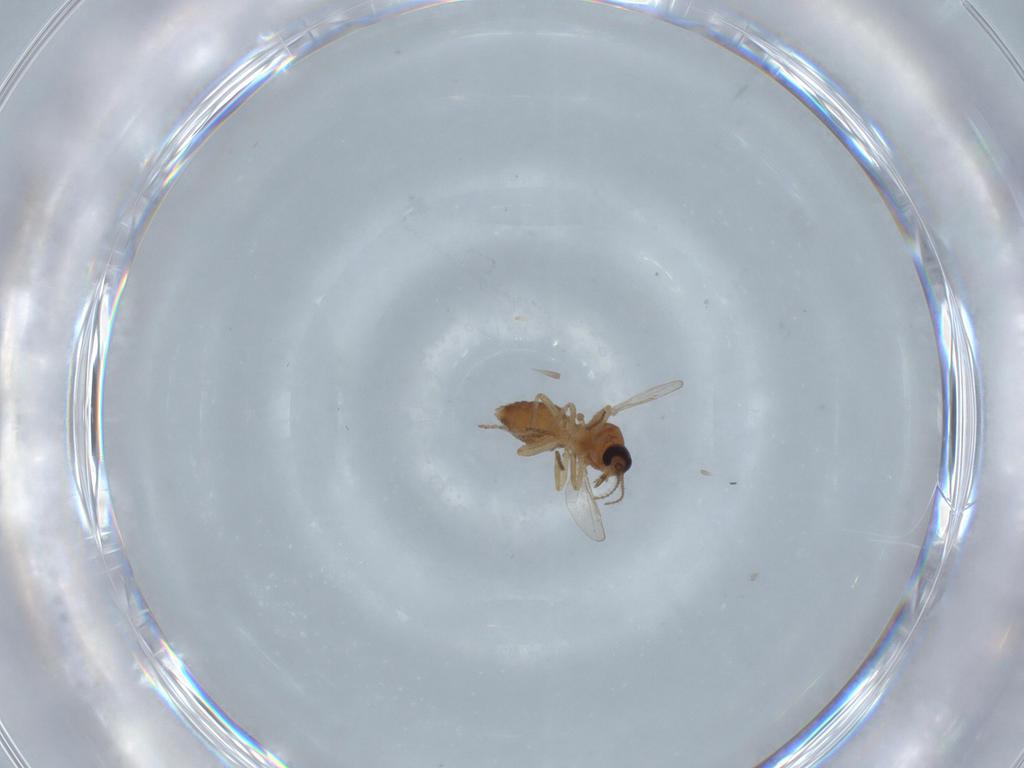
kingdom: Animalia
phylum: Arthropoda
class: Insecta
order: Diptera
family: Ceratopogonidae
